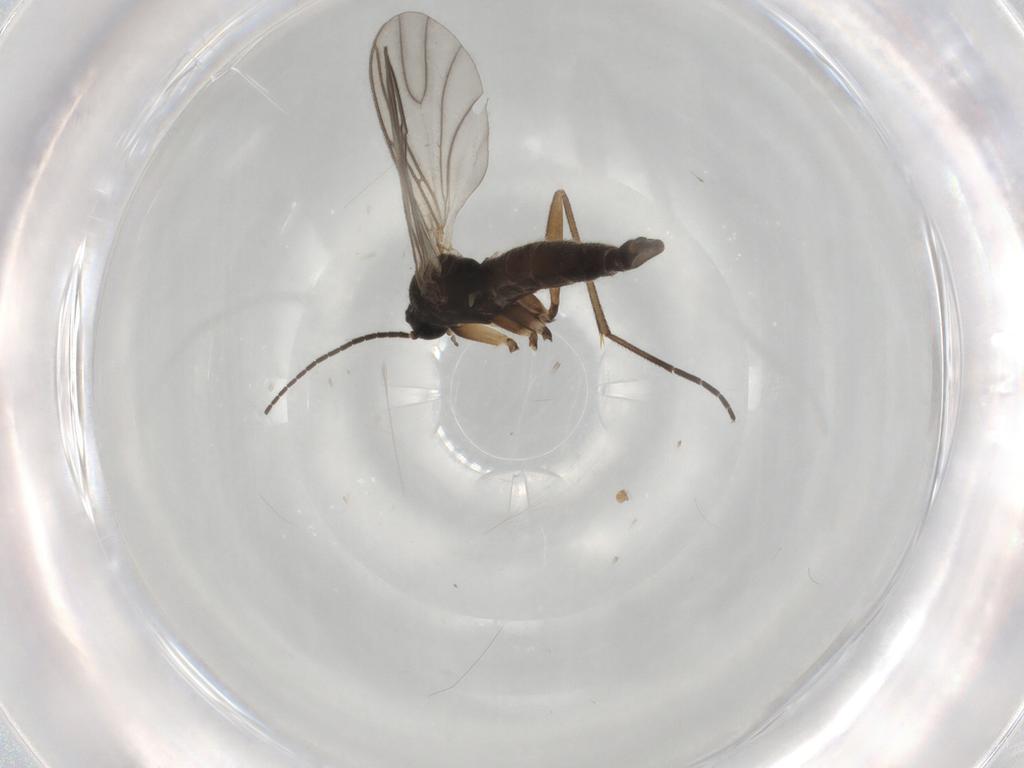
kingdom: Animalia
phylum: Arthropoda
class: Insecta
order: Diptera
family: Sciaridae
